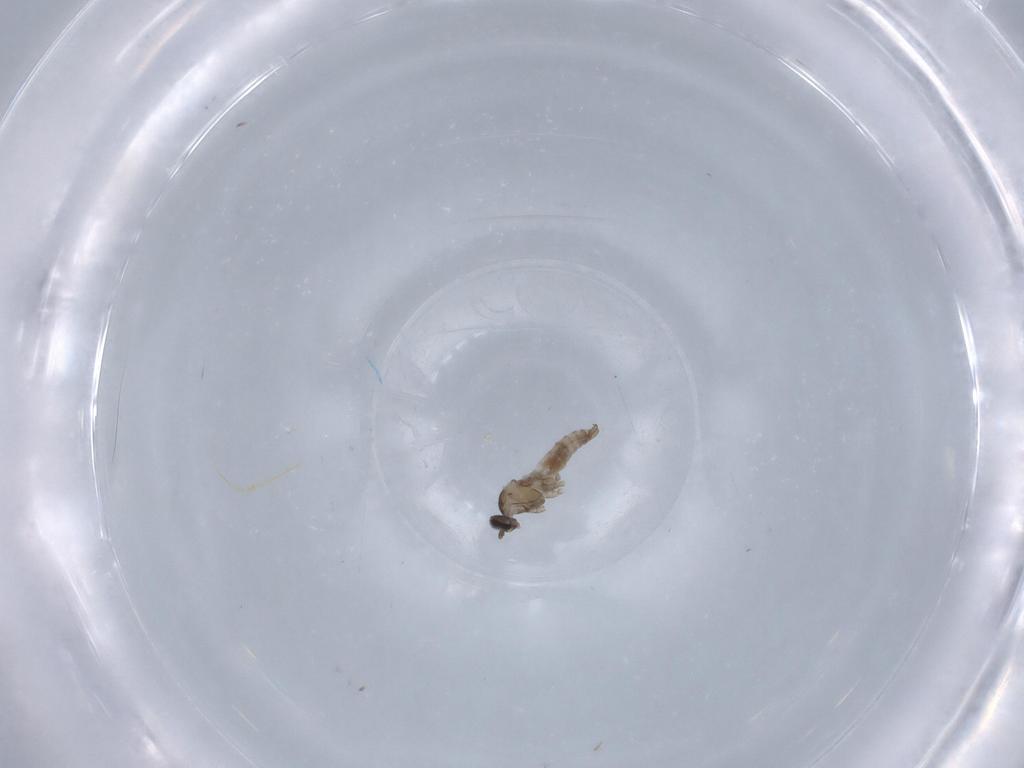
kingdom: Animalia
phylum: Arthropoda
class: Insecta
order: Diptera
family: Cecidomyiidae
